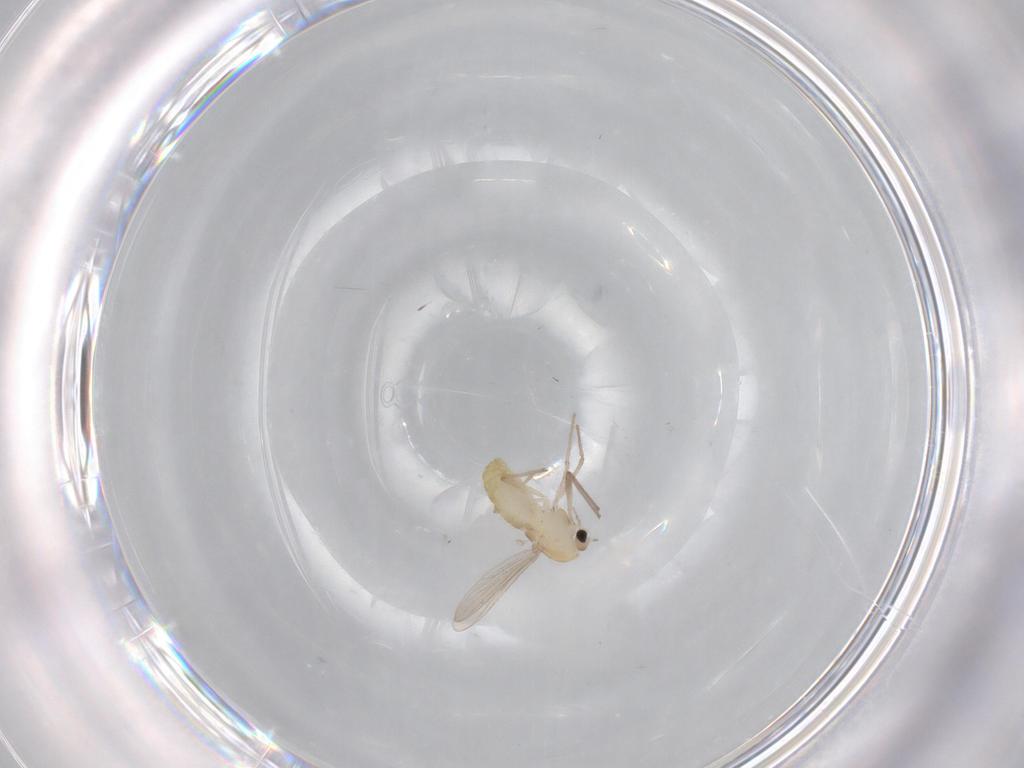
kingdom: Animalia
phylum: Arthropoda
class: Insecta
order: Diptera
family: Chironomidae
